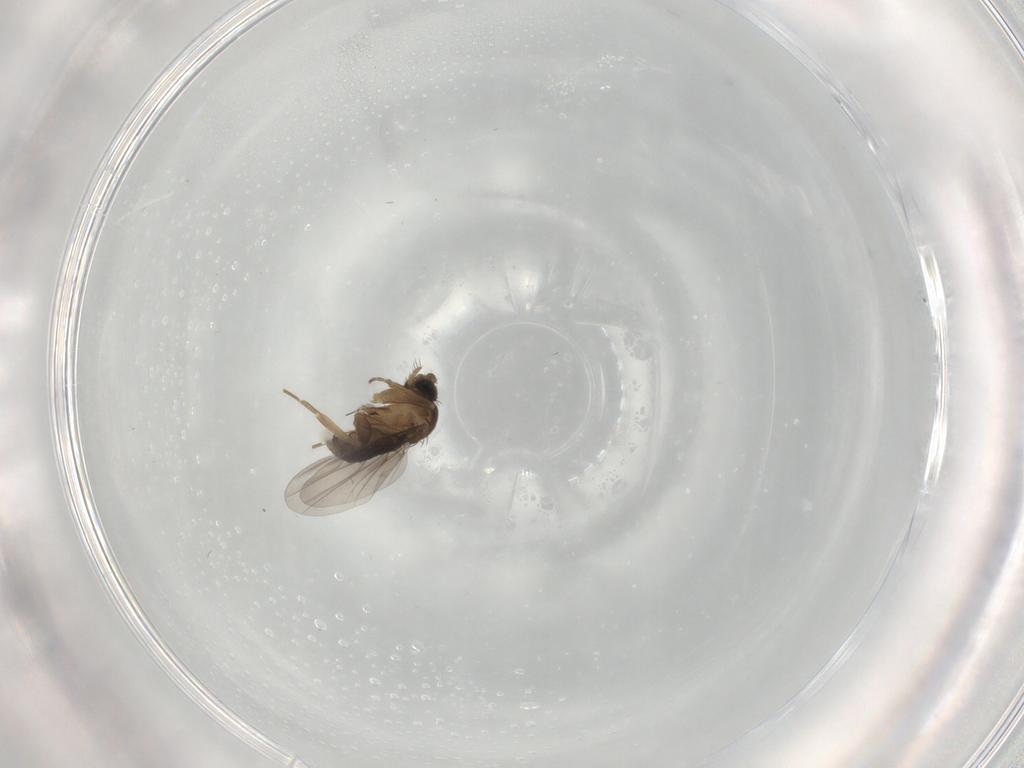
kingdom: Animalia
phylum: Arthropoda
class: Insecta
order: Diptera
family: Cecidomyiidae
